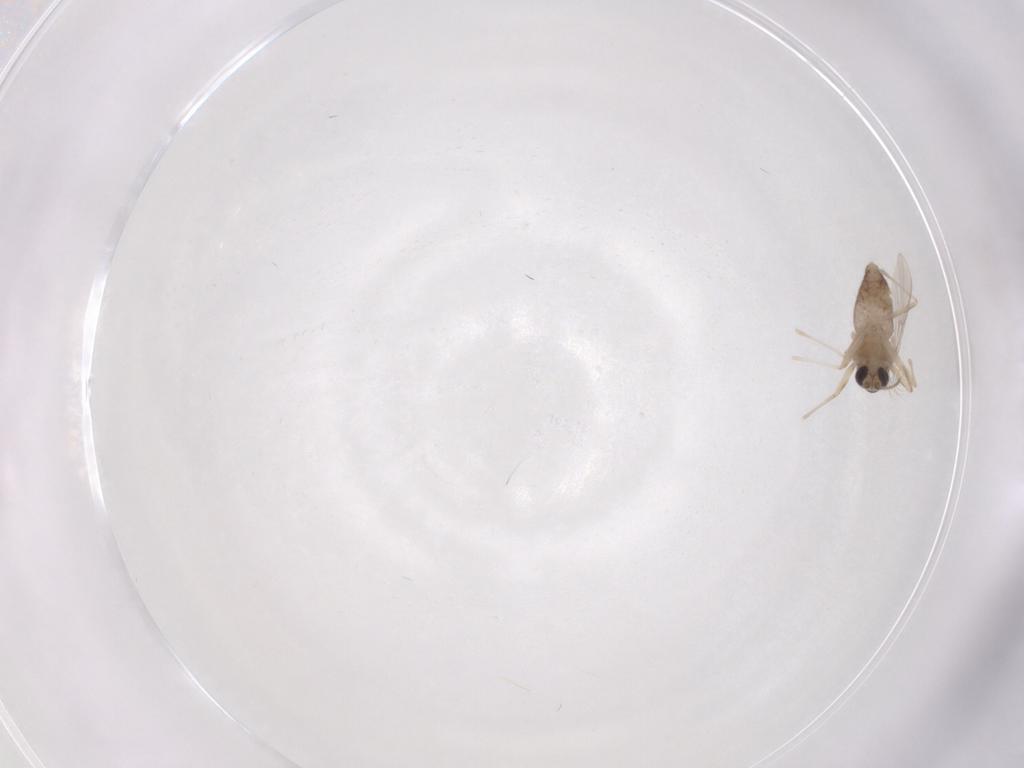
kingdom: Animalia
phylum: Arthropoda
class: Insecta
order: Diptera
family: Chironomidae
